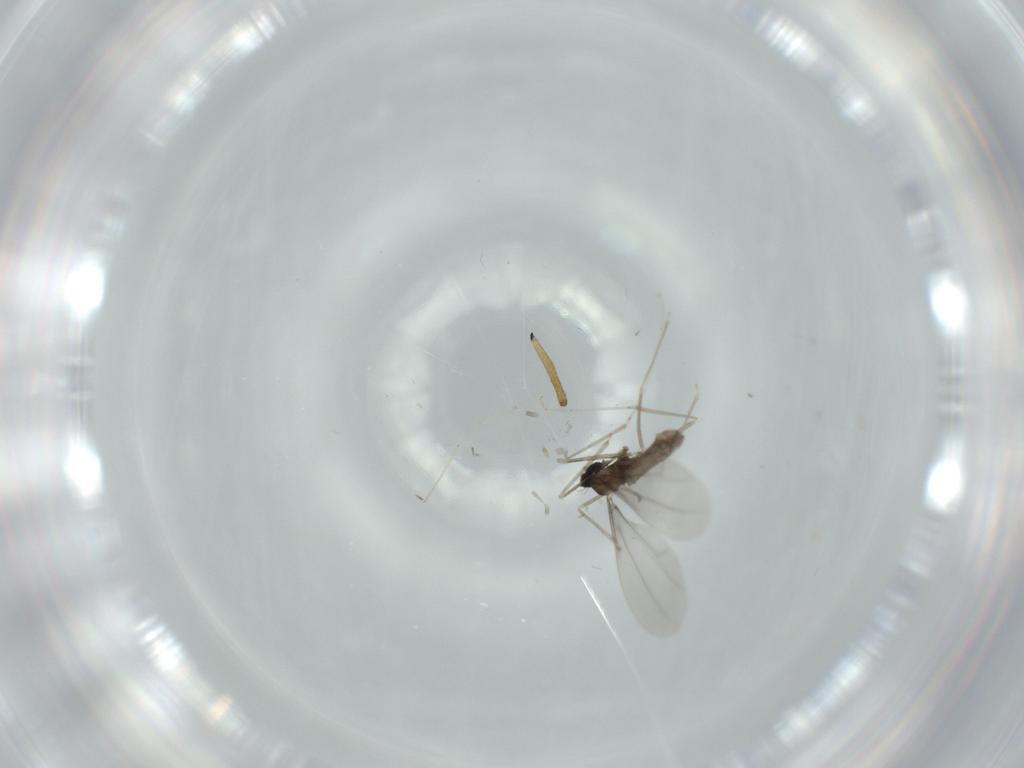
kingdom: Animalia
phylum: Arthropoda
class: Insecta
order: Diptera
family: Sciaridae
